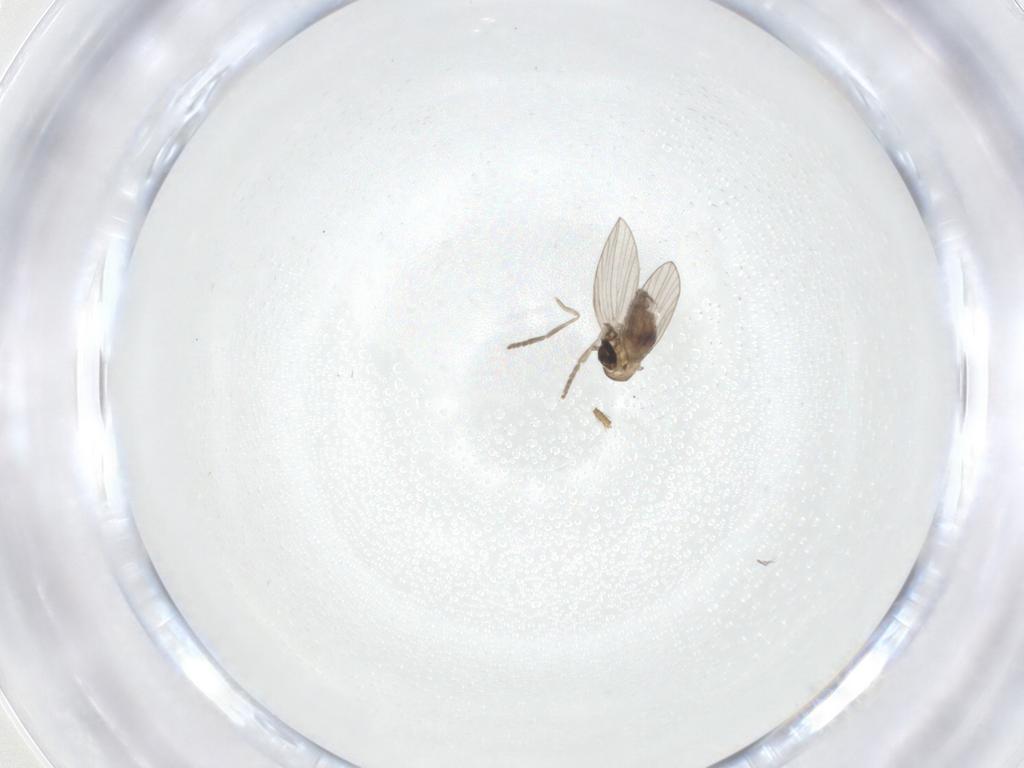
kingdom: Animalia
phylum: Arthropoda
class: Insecta
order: Diptera
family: Psychodidae
